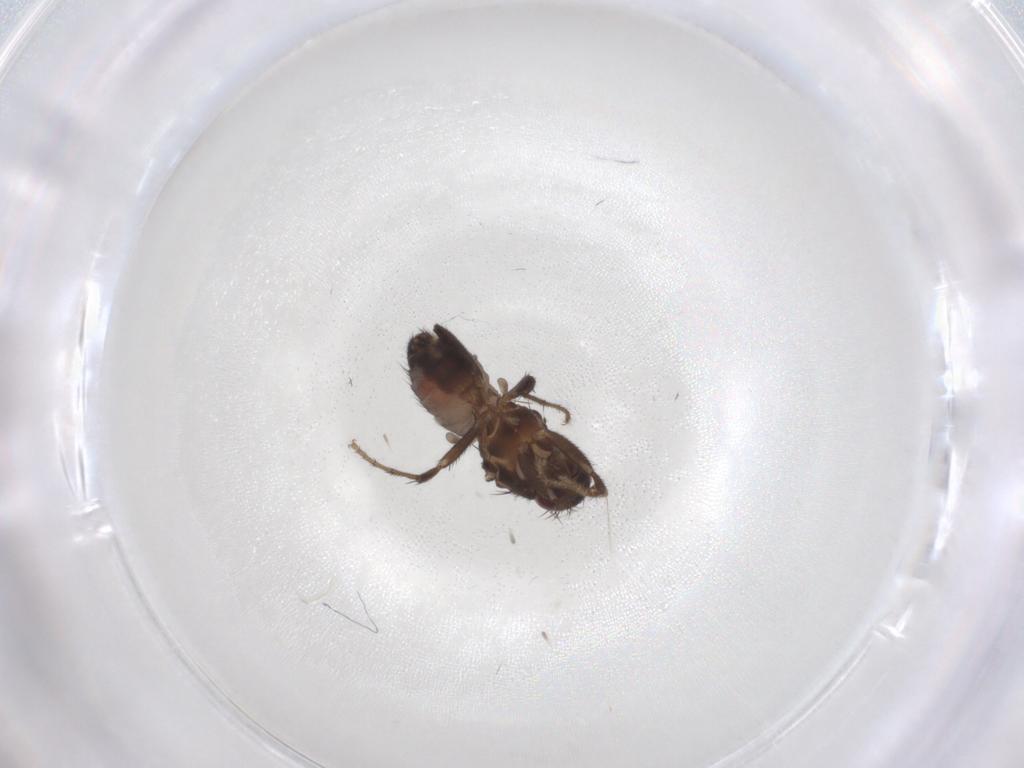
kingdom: Animalia
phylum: Arthropoda
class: Insecta
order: Diptera
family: Sphaeroceridae
